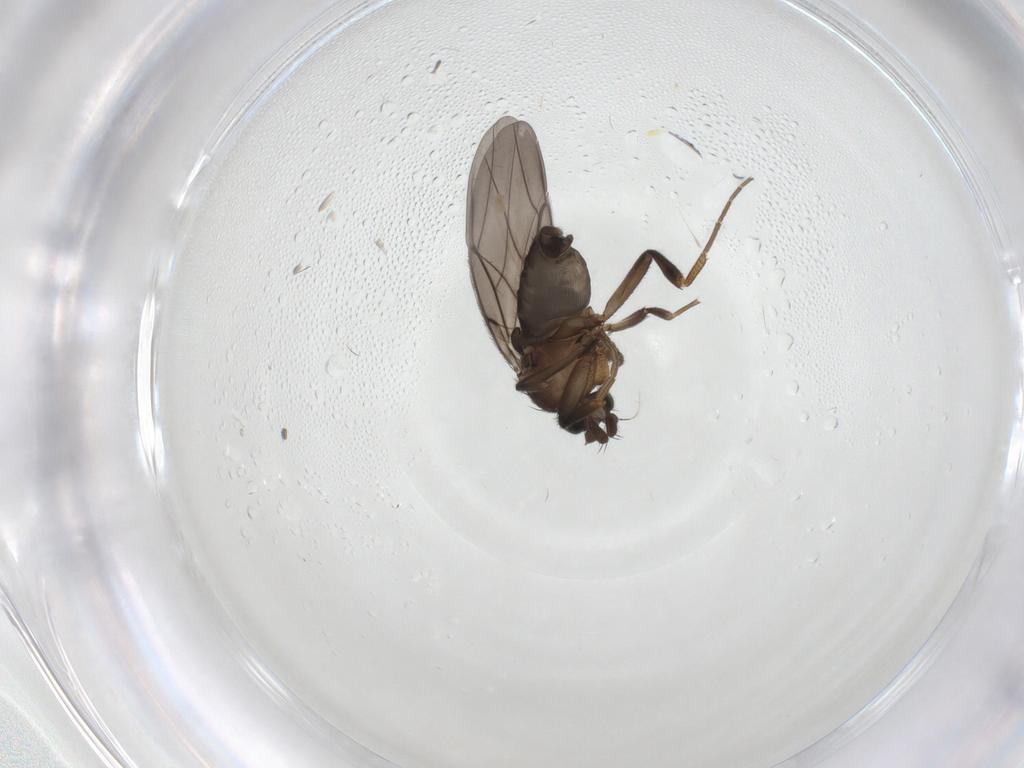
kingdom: Animalia
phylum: Arthropoda
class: Insecta
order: Diptera
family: Phoridae
